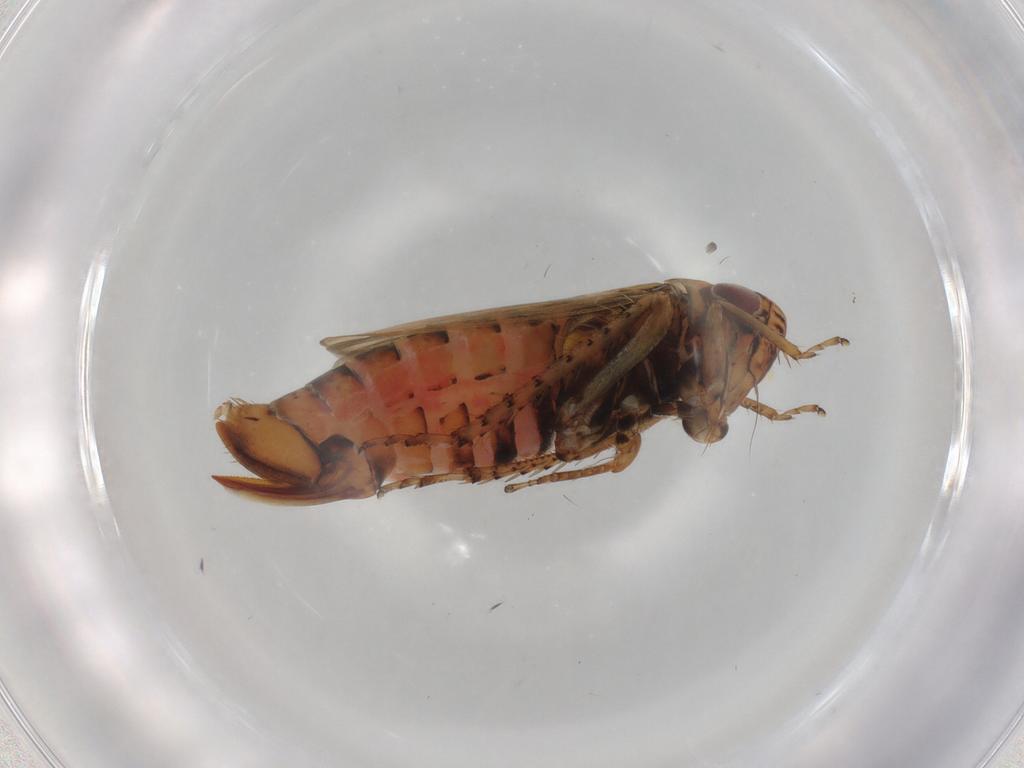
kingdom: Animalia
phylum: Arthropoda
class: Insecta
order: Hemiptera
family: Cicadellidae
